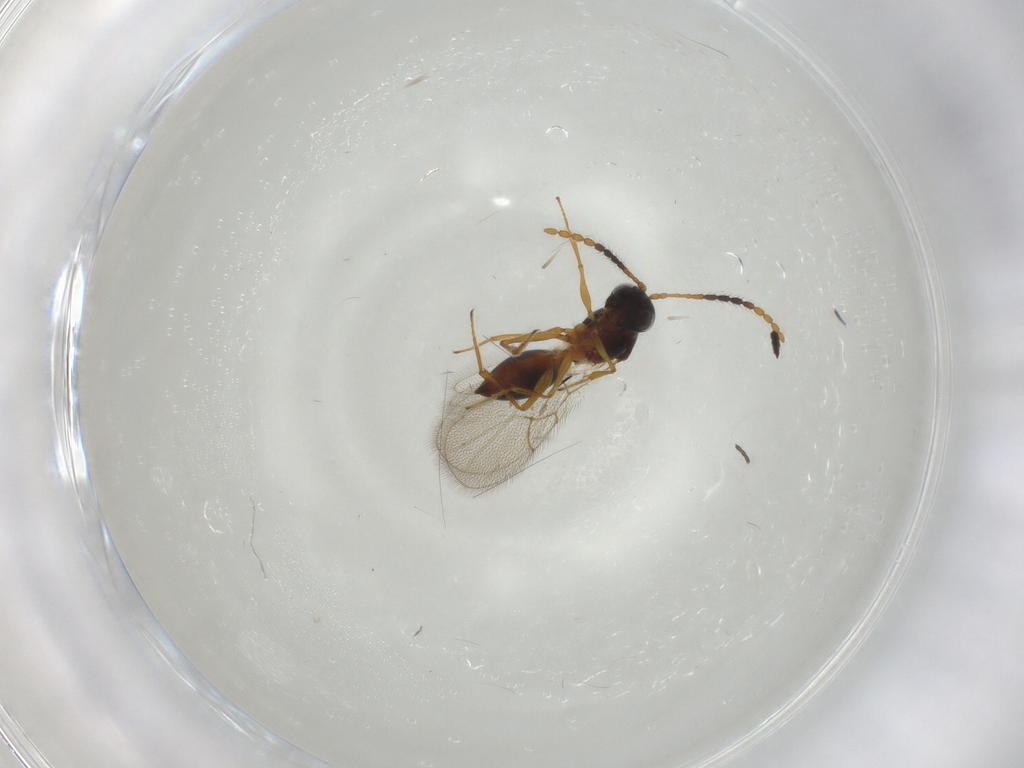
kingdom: Animalia
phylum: Arthropoda
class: Insecta
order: Hymenoptera
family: Figitidae
